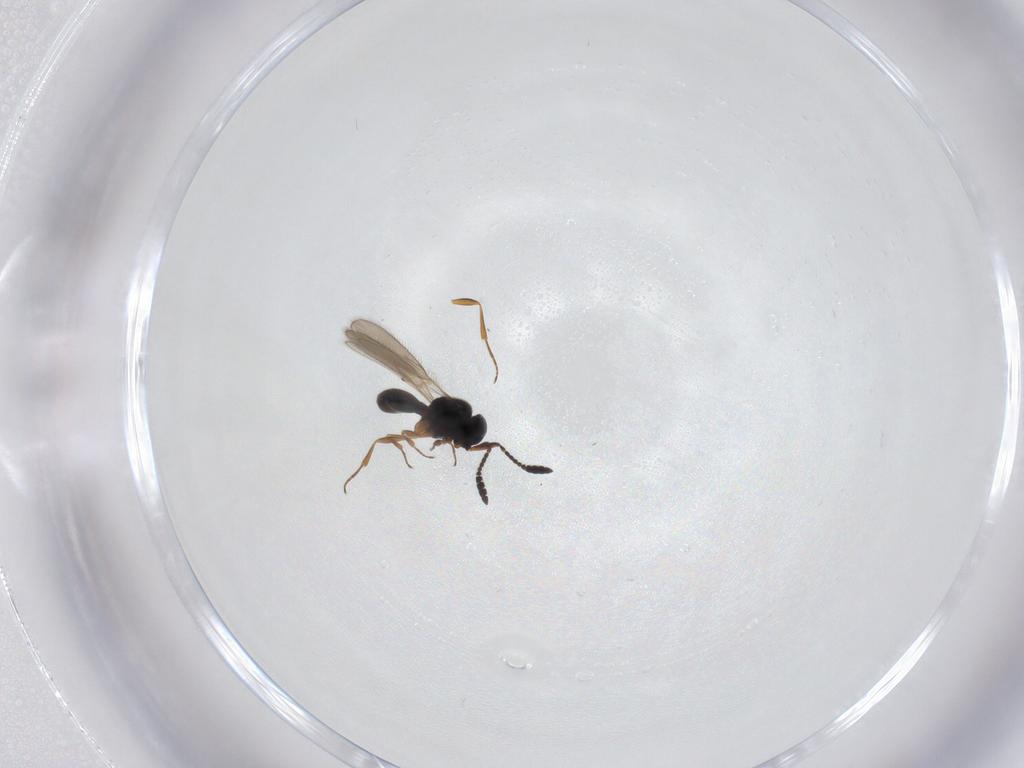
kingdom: Animalia
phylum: Arthropoda
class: Insecta
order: Hymenoptera
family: Scelionidae
